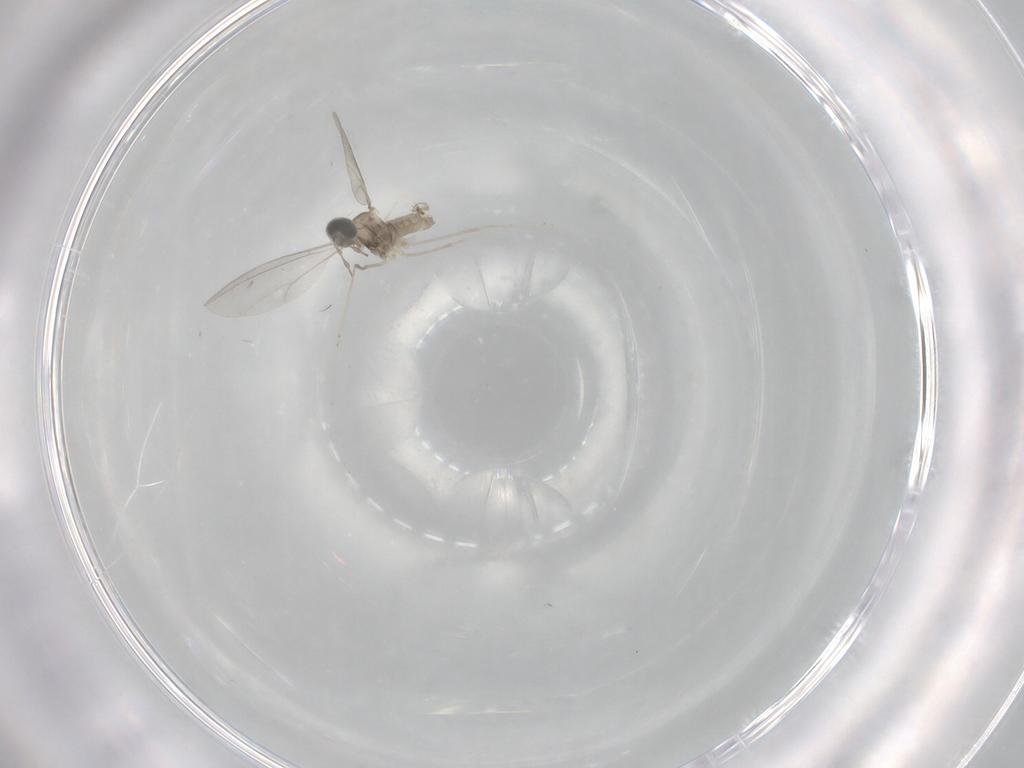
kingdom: Animalia
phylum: Arthropoda
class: Insecta
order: Diptera
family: Cecidomyiidae
